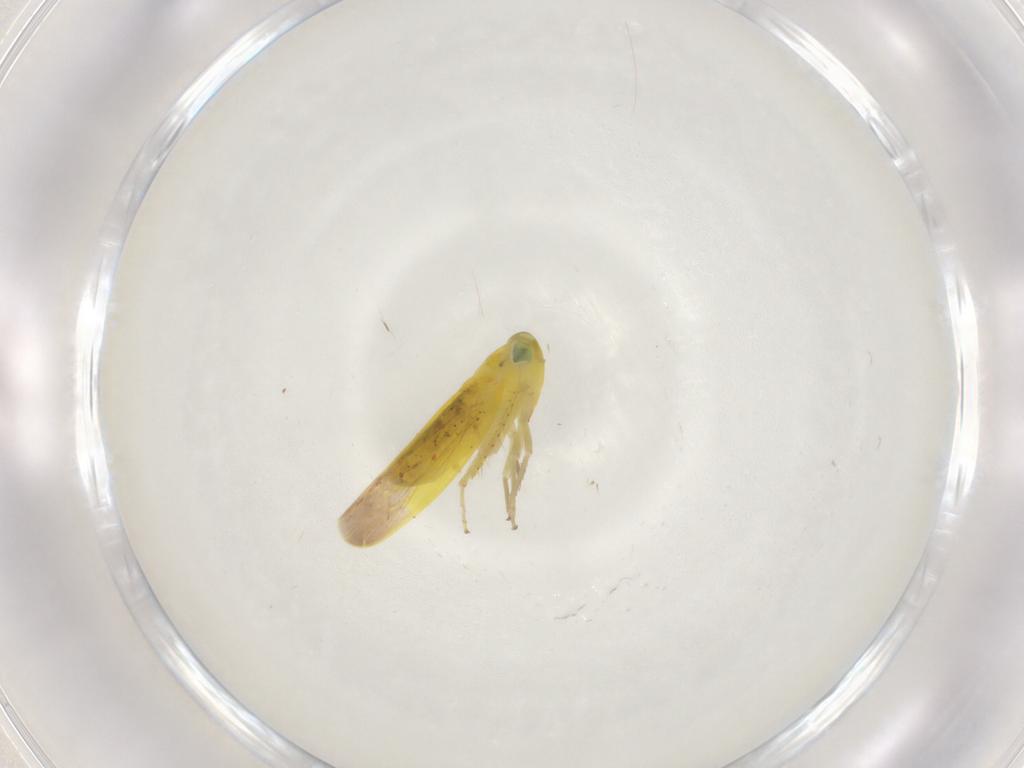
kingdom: Animalia
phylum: Arthropoda
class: Insecta
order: Hemiptera
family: Cicadellidae
